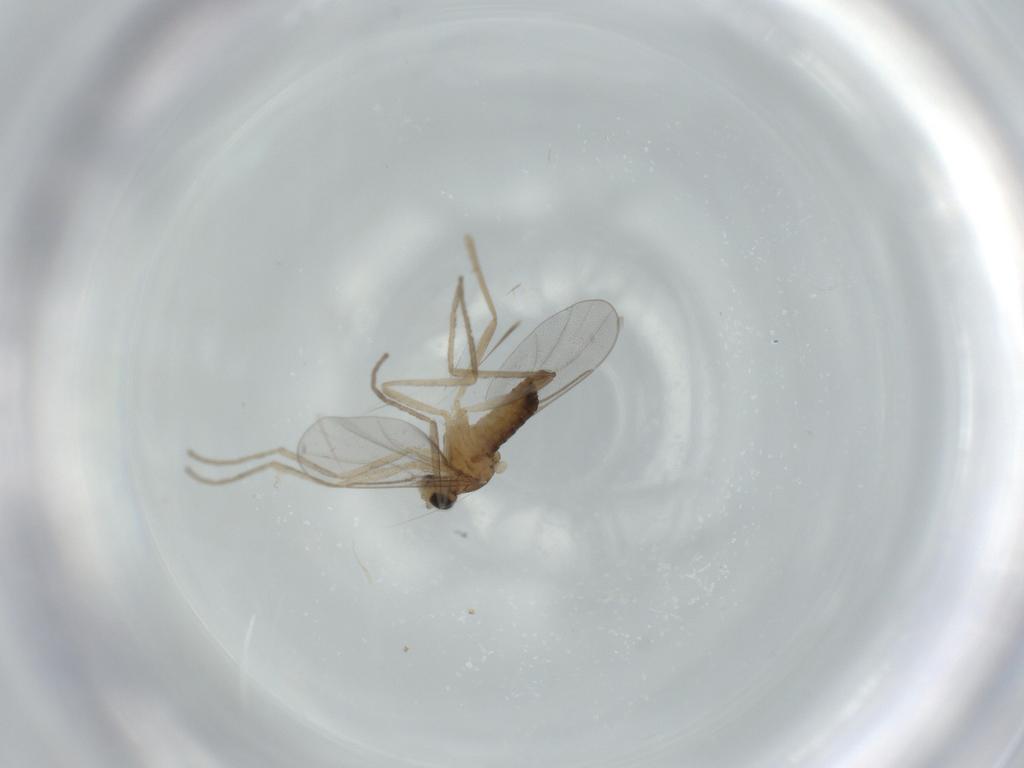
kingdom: Animalia
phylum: Arthropoda
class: Insecta
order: Diptera
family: Cecidomyiidae
